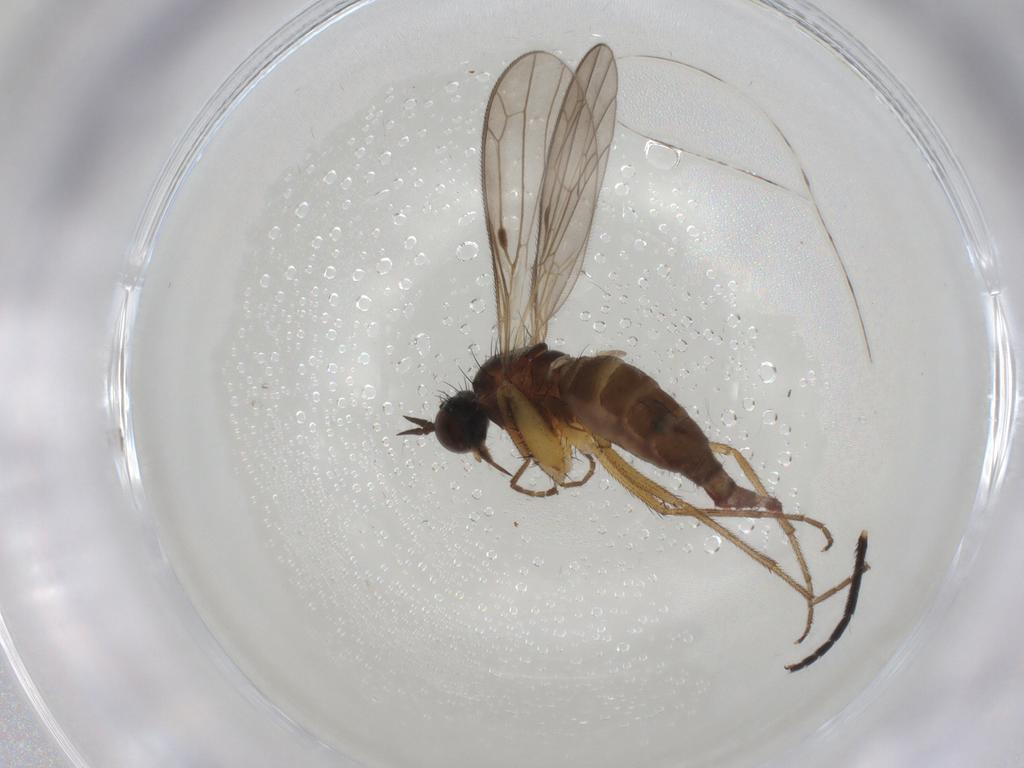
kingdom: Animalia
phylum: Arthropoda
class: Insecta
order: Diptera
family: Tachinidae
